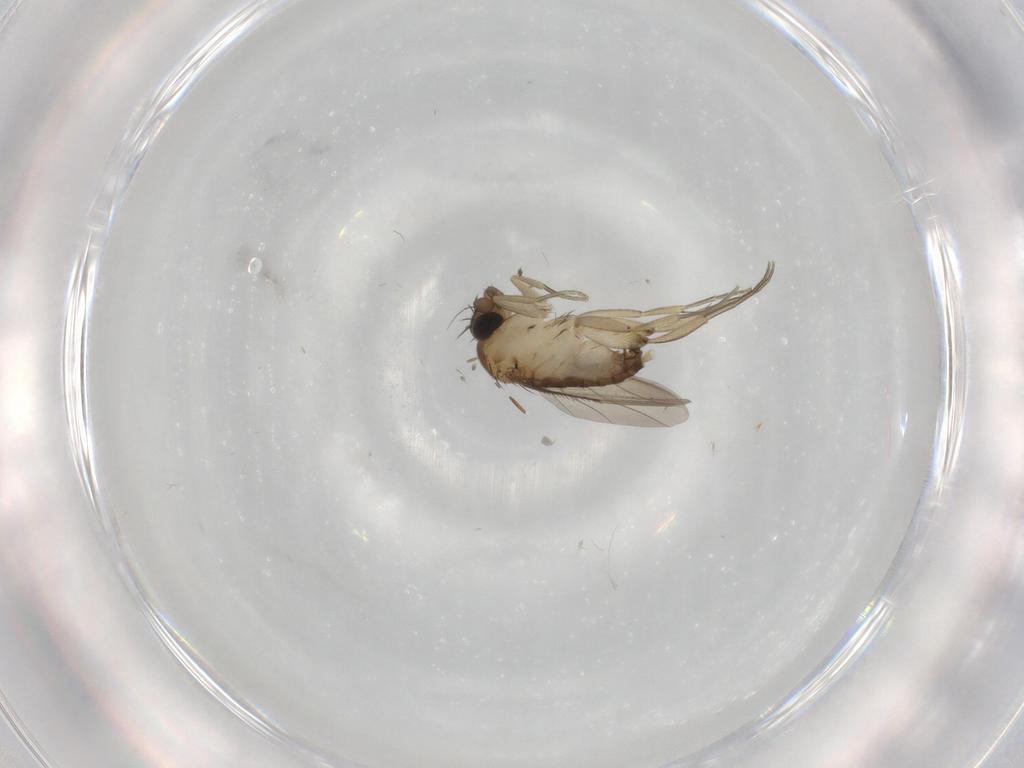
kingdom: Animalia
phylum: Arthropoda
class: Insecta
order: Diptera
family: Phoridae
